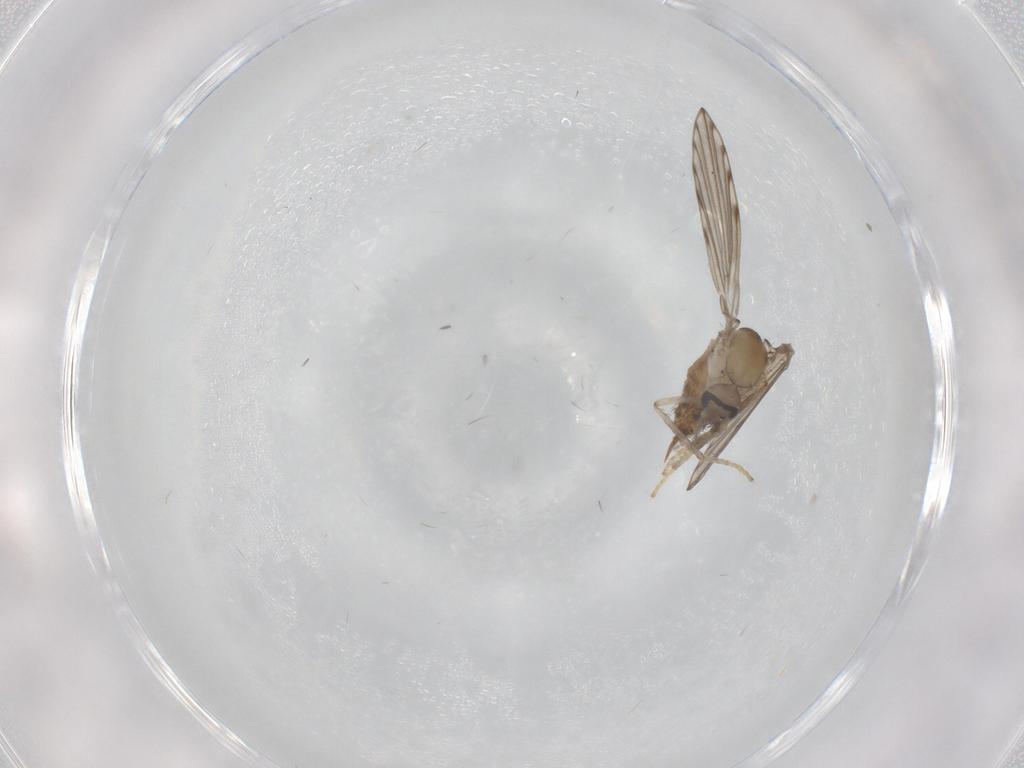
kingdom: Animalia
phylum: Arthropoda
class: Insecta
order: Diptera
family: Psychodidae
